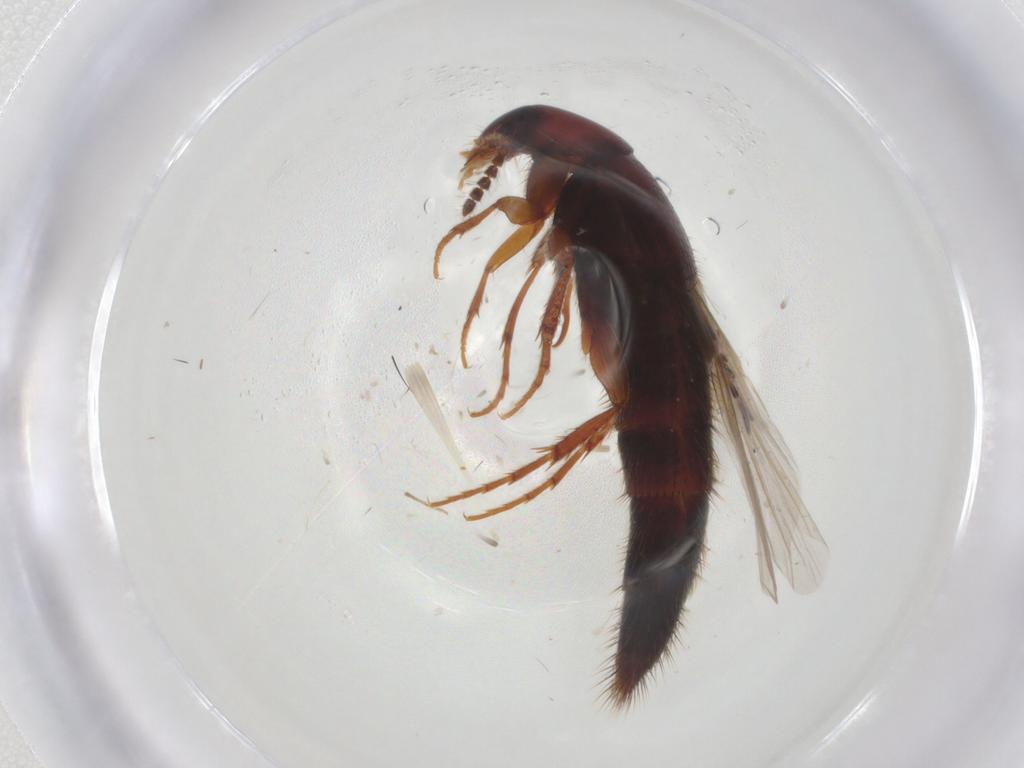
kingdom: Animalia
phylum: Arthropoda
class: Insecta
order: Coleoptera
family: Staphylinidae
